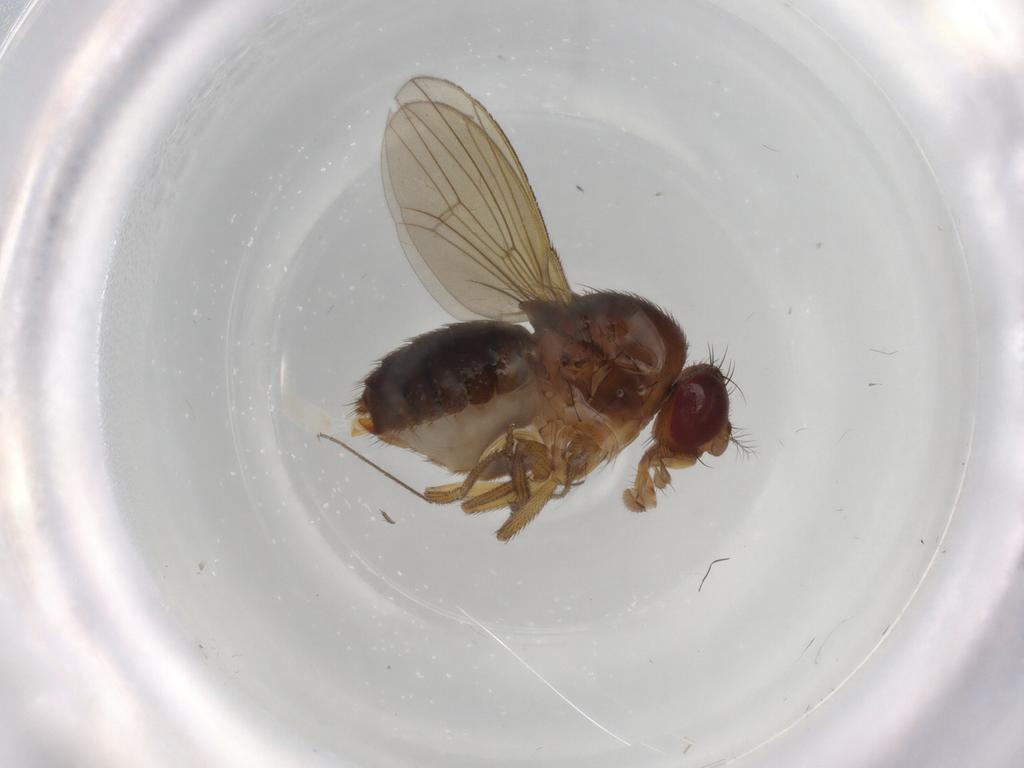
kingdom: Animalia
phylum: Arthropoda
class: Insecta
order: Diptera
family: Drosophilidae
